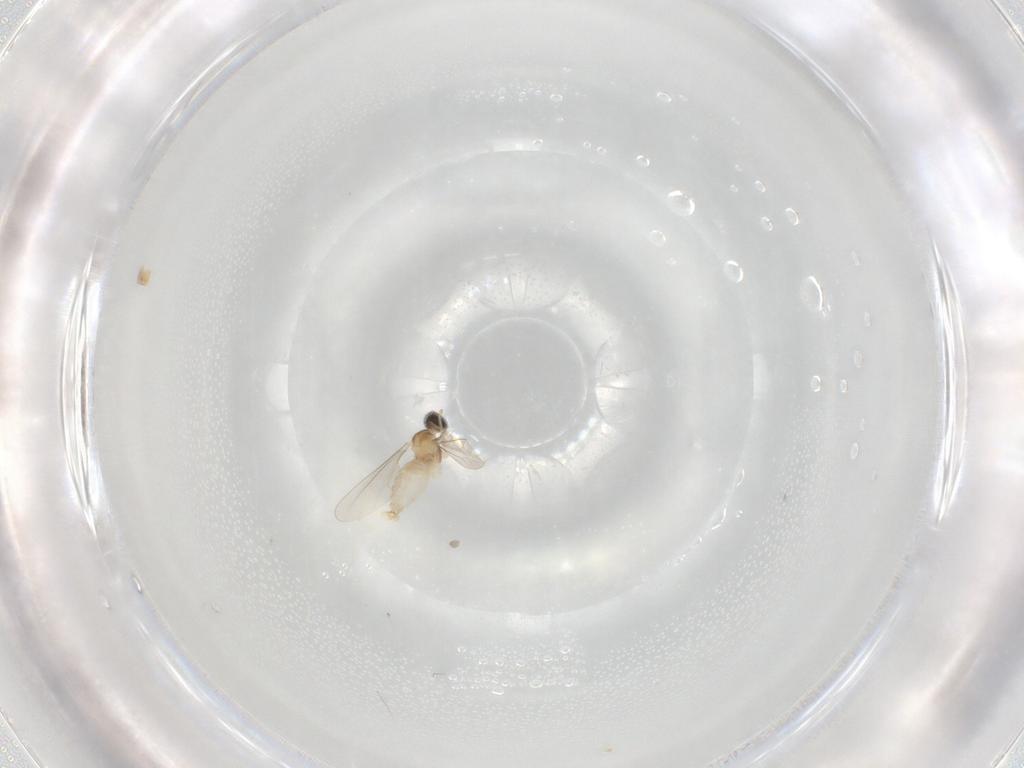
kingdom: Animalia
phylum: Arthropoda
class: Insecta
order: Diptera
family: Cecidomyiidae
